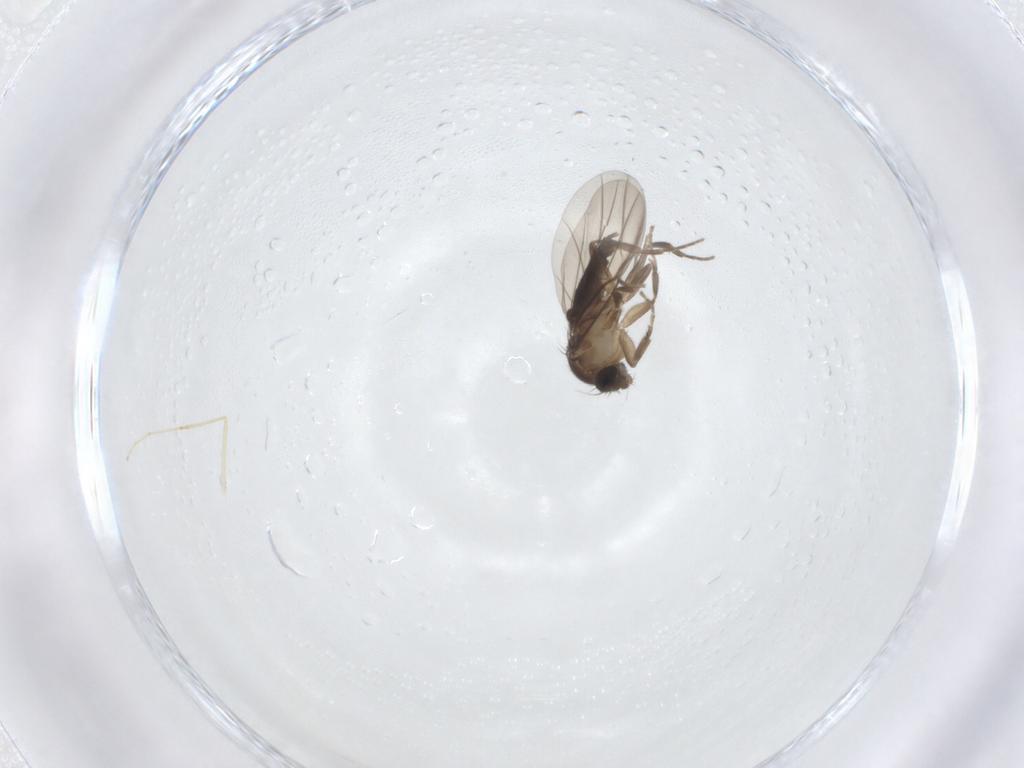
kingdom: Animalia
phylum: Arthropoda
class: Insecta
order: Diptera
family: Phoridae
